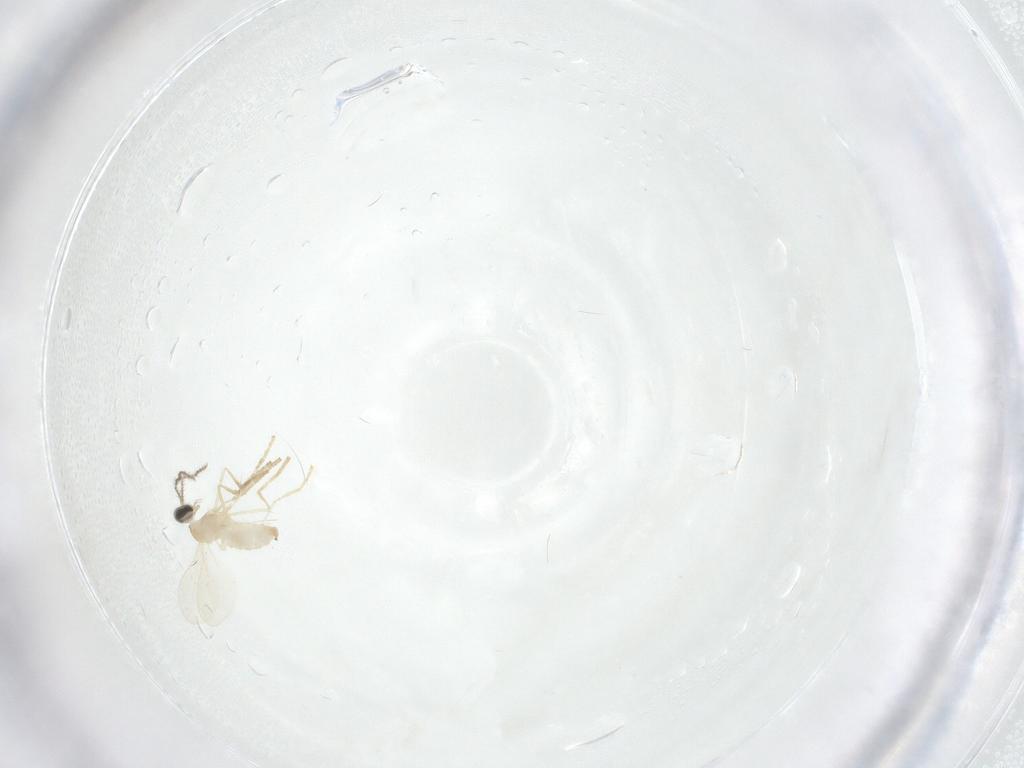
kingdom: Animalia
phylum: Arthropoda
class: Insecta
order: Diptera
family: Cecidomyiidae
